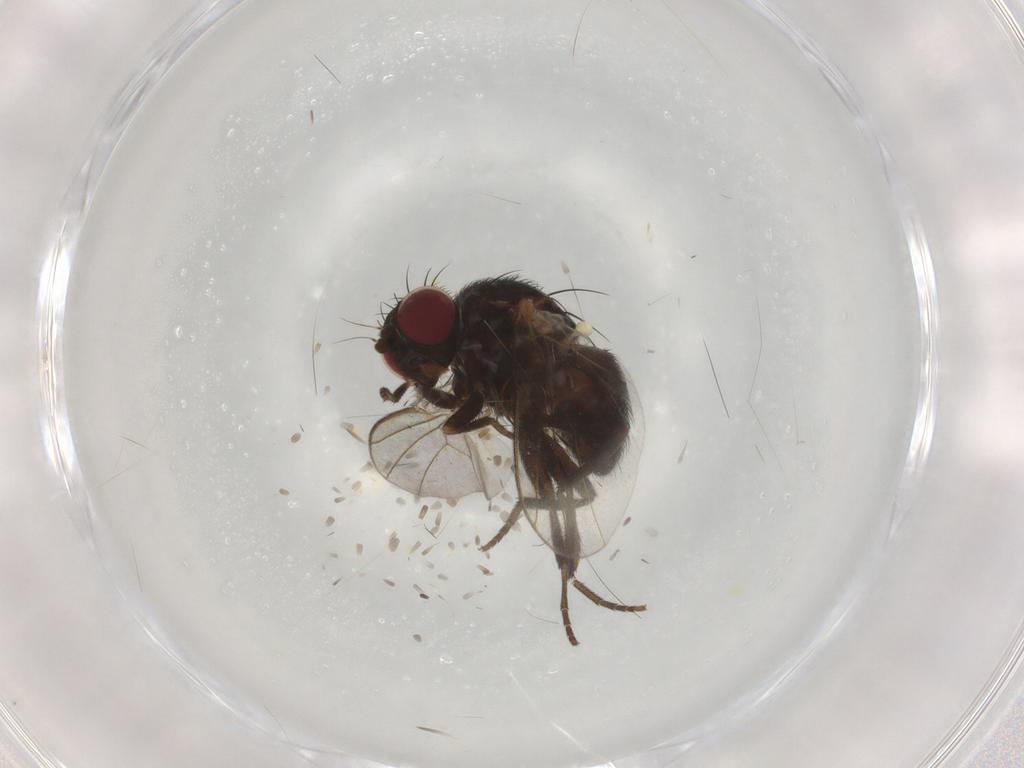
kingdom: Animalia
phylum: Arthropoda
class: Insecta
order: Diptera
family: Agromyzidae
